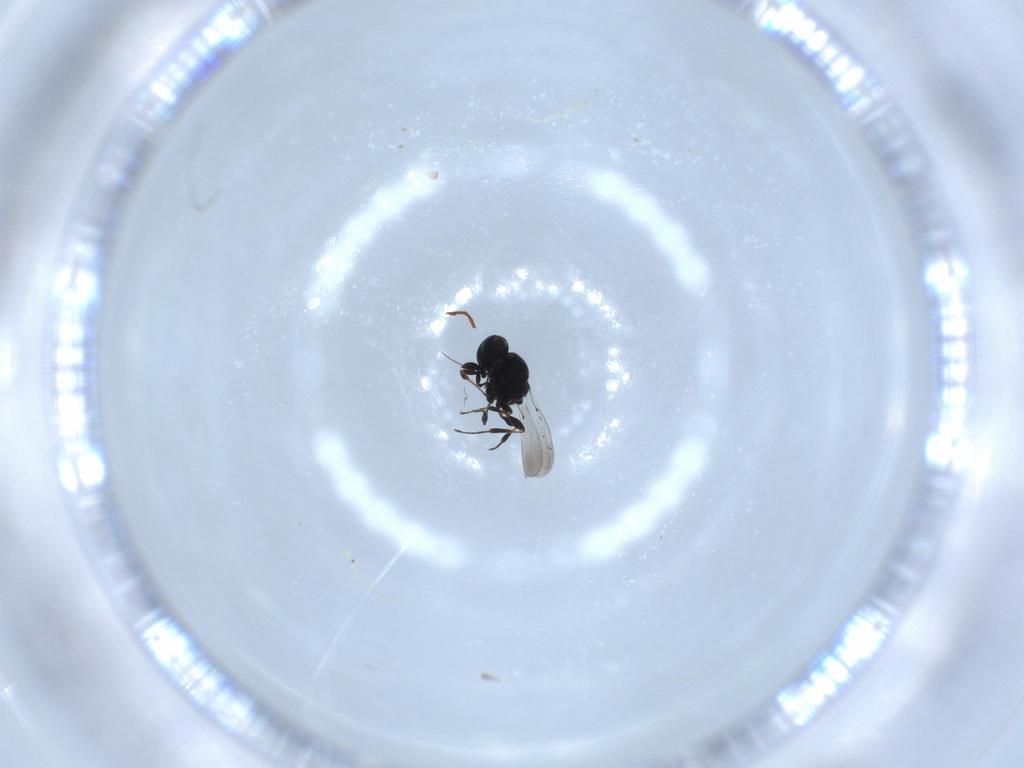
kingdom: Animalia
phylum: Arthropoda
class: Insecta
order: Hymenoptera
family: Platygastridae
